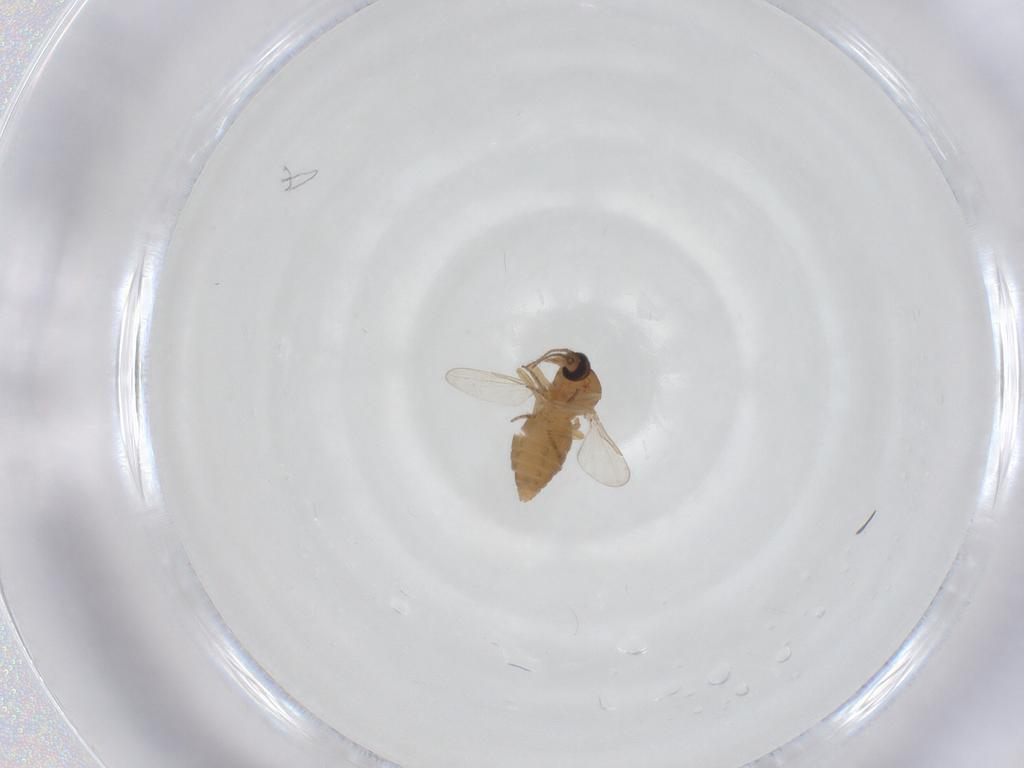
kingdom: Animalia
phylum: Arthropoda
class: Insecta
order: Diptera
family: Ceratopogonidae
